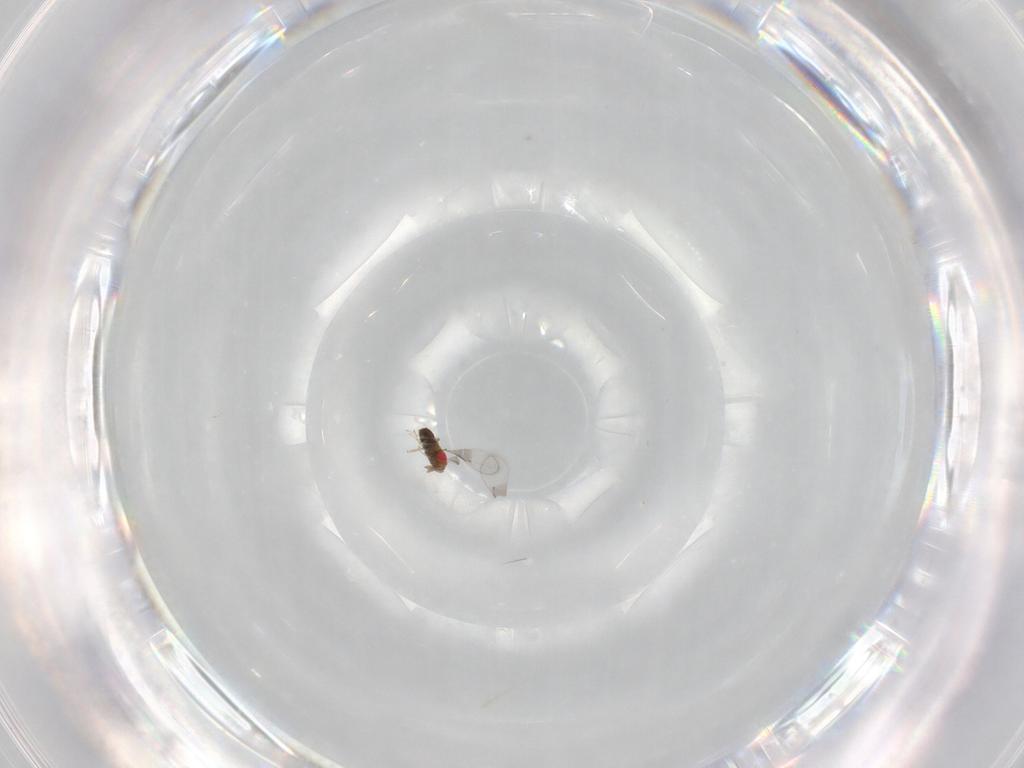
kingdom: Animalia
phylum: Arthropoda
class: Insecta
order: Hymenoptera
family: Trichogrammatidae
